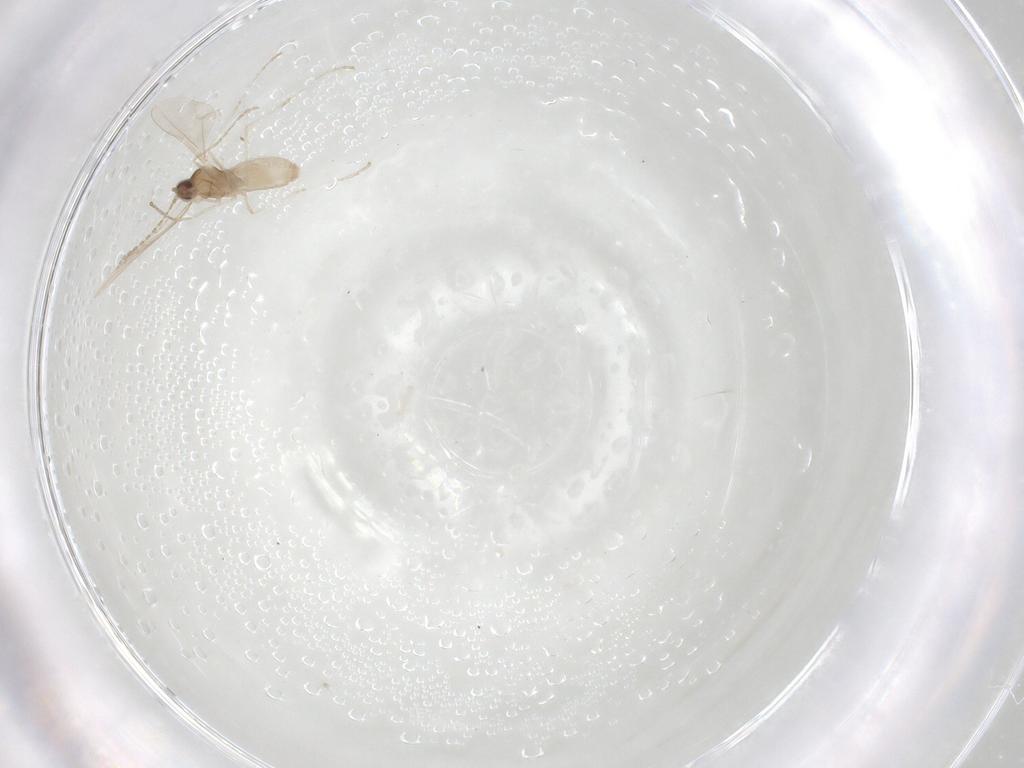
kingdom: Animalia
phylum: Arthropoda
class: Insecta
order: Diptera
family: Cecidomyiidae
